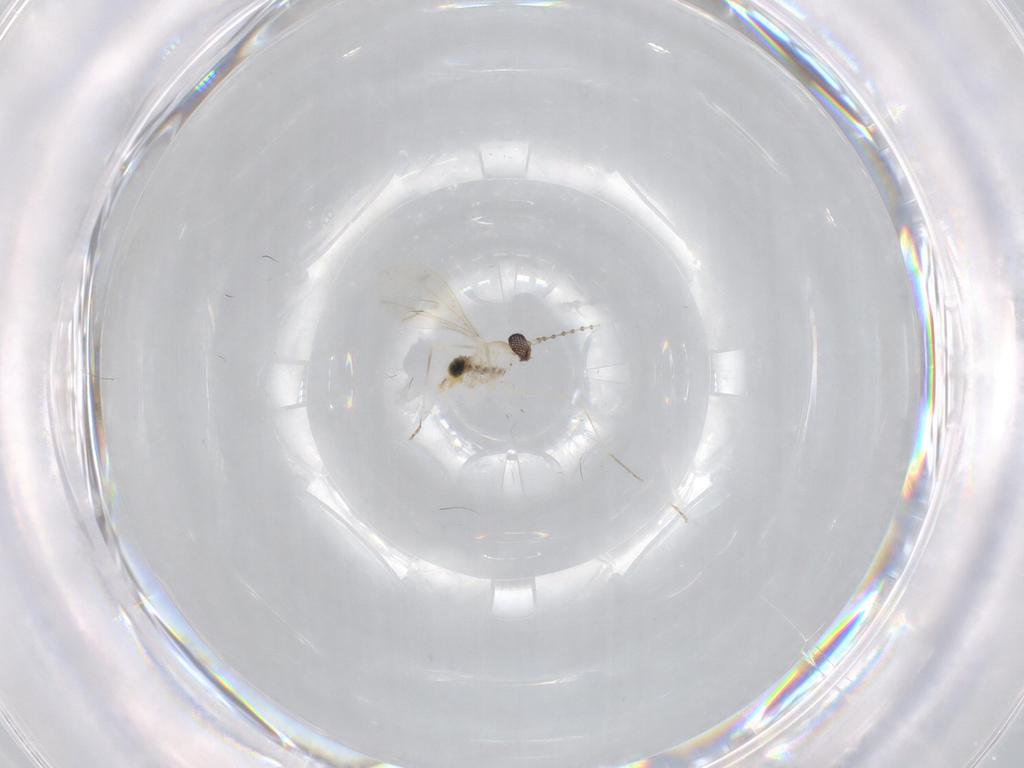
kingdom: Animalia
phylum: Arthropoda
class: Insecta
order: Diptera
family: Cecidomyiidae
